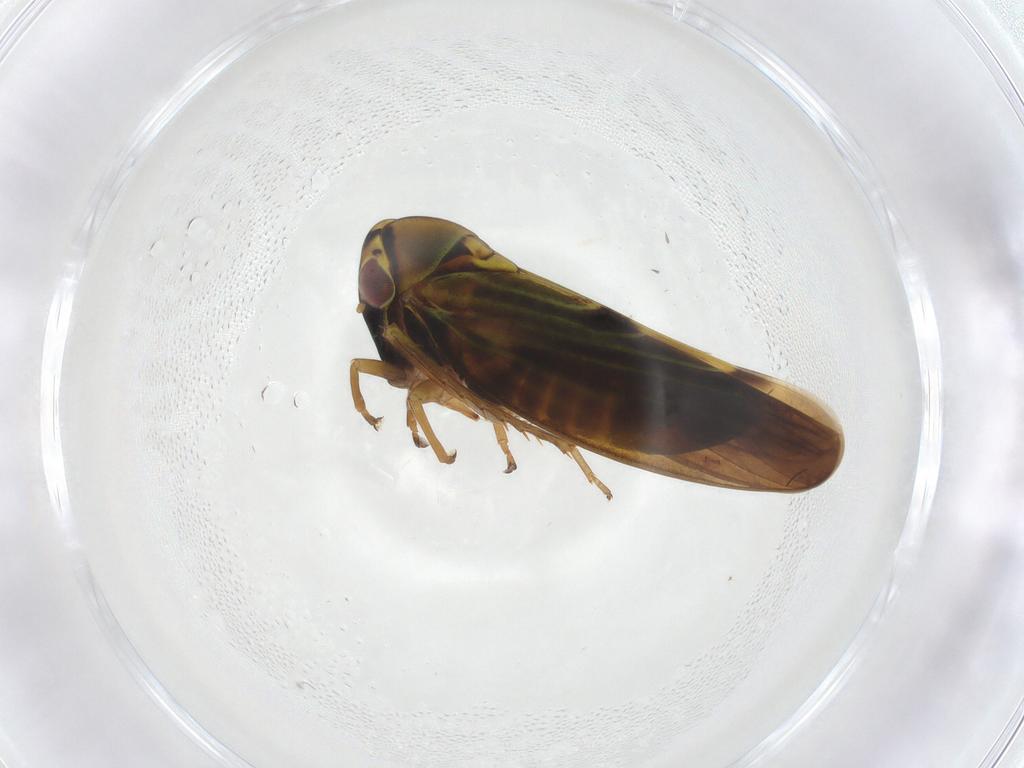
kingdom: Animalia
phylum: Arthropoda
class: Insecta
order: Hemiptera
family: Cicadellidae
